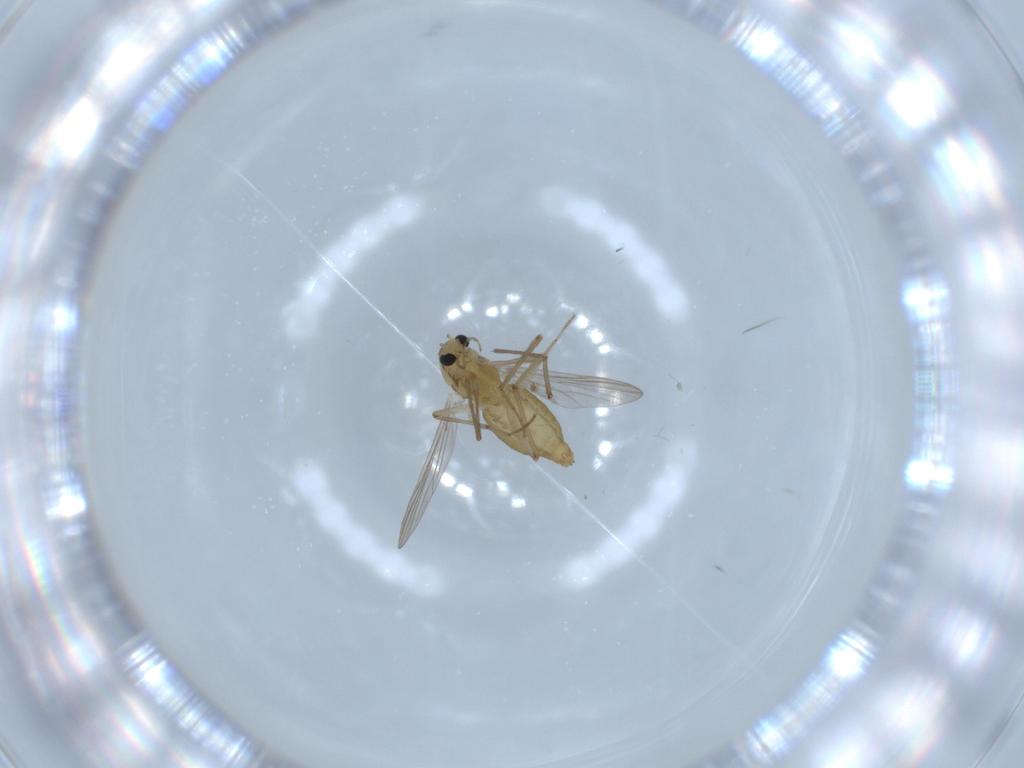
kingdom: Animalia
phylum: Arthropoda
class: Insecta
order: Diptera
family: Chironomidae
